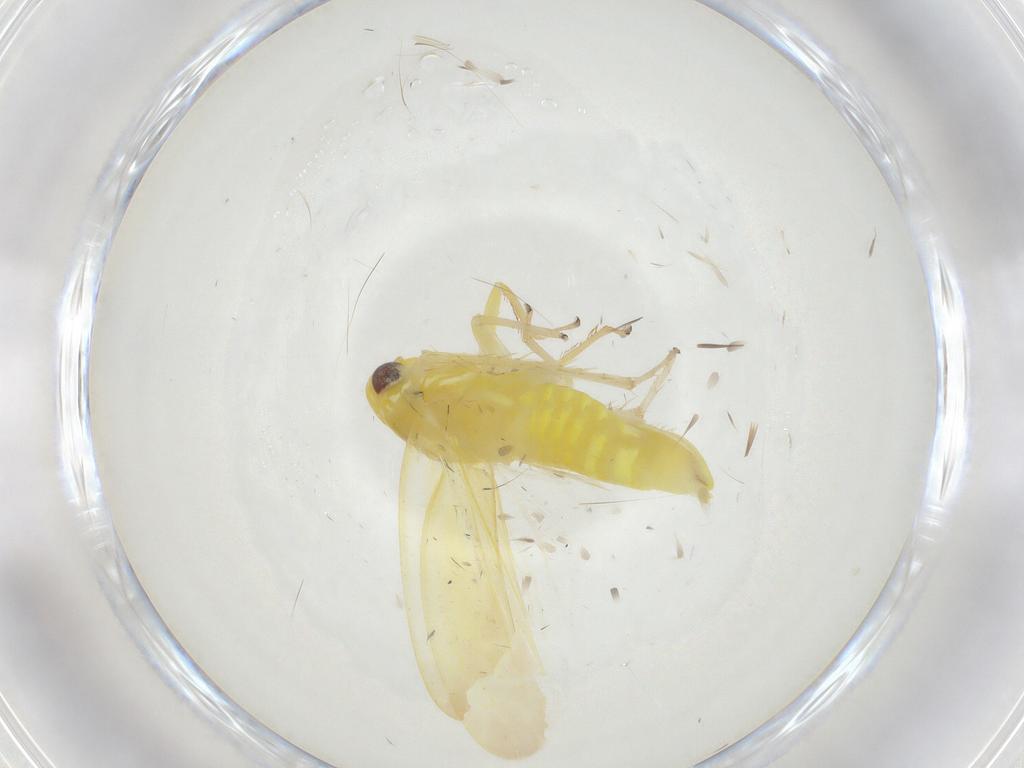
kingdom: Animalia
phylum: Arthropoda
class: Insecta
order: Hemiptera
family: Cicadellidae
